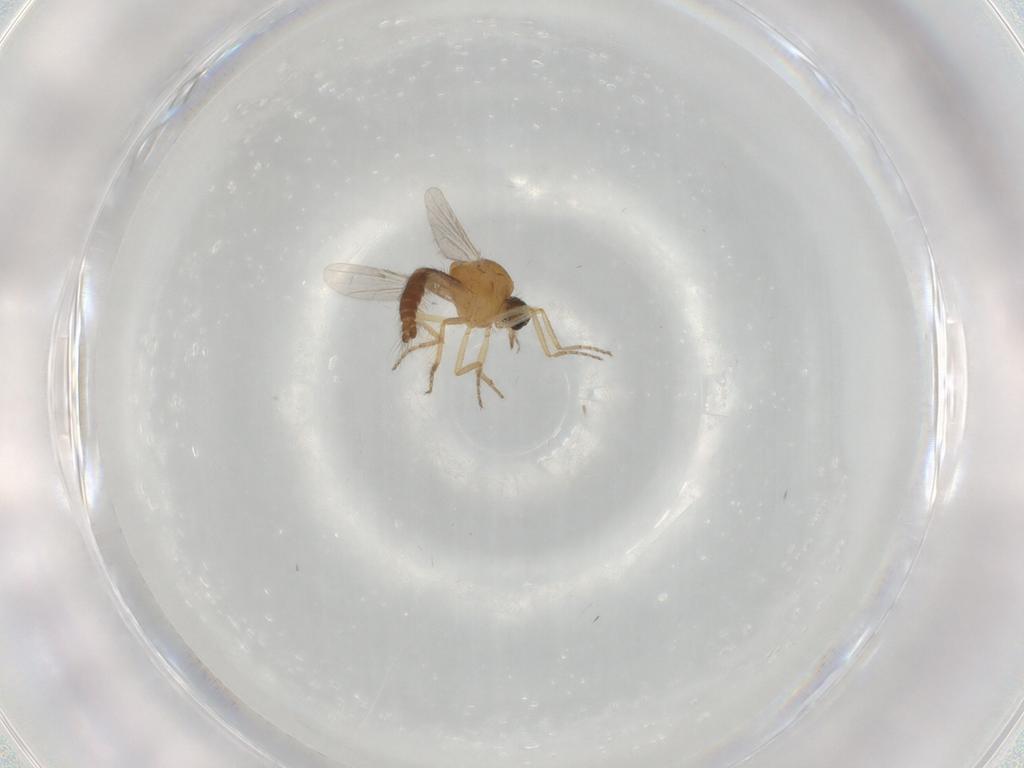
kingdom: Animalia
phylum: Arthropoda
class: Insecta
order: Diptera
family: Ceratopogonidae
